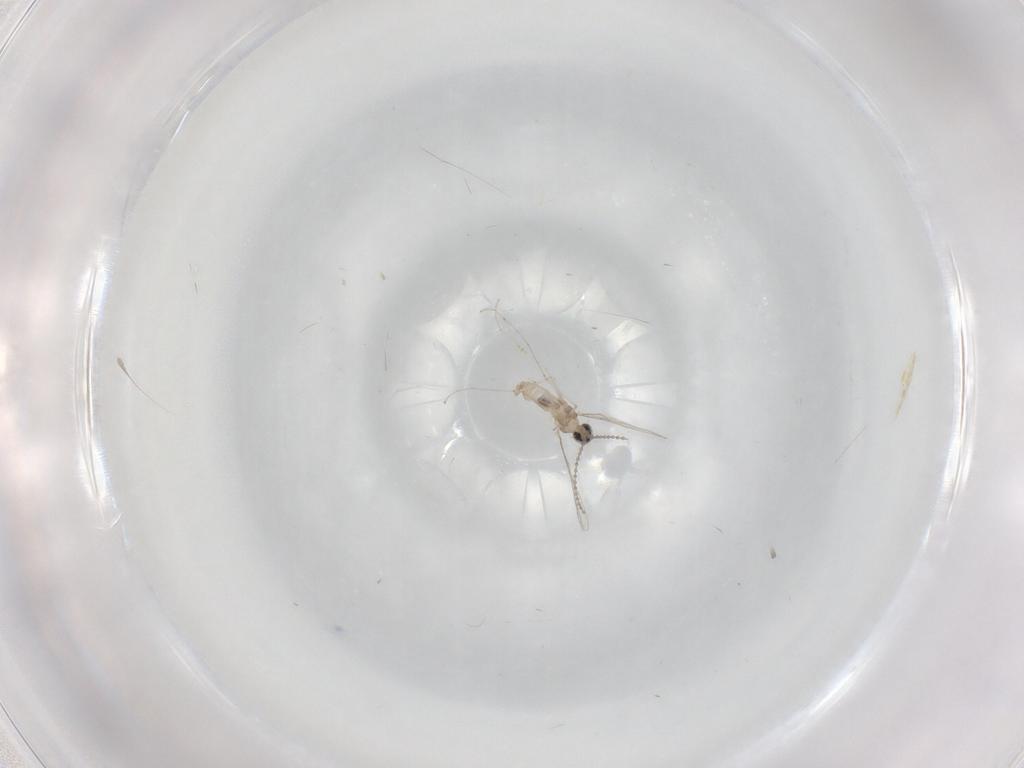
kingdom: Animalia
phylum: Arthropoda
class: Insecta
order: Diptera
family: Cecidomyiidae
